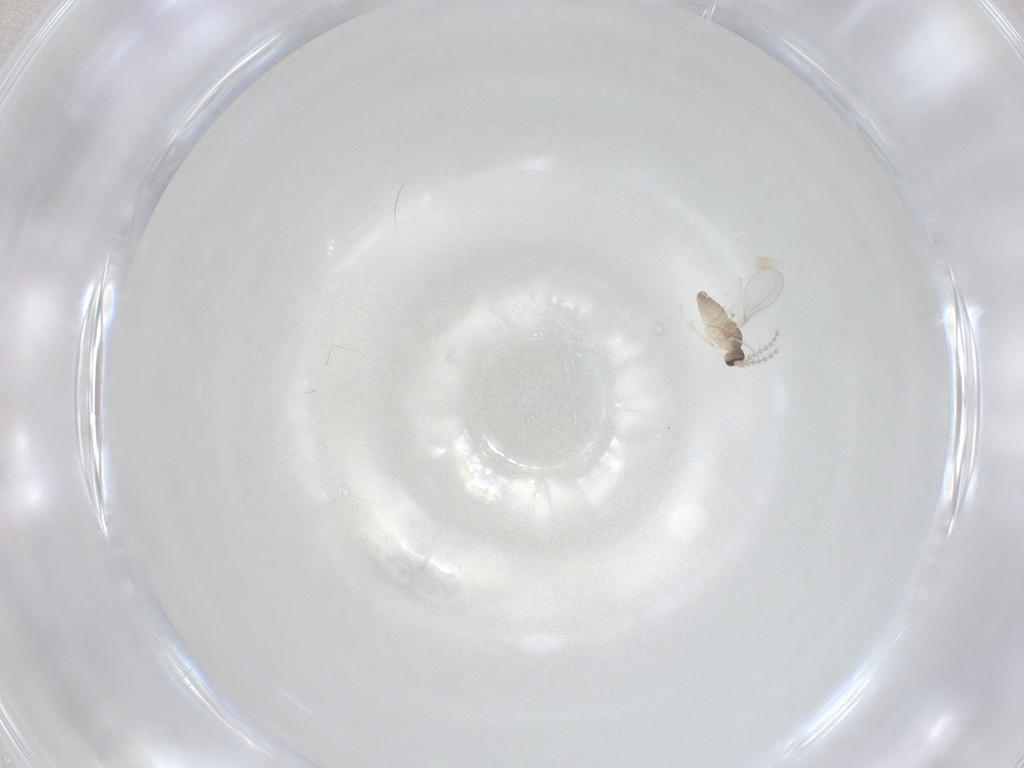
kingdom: Animalia
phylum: Arthropoda
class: Insecta
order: Diptera
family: Cecidomyiidae
